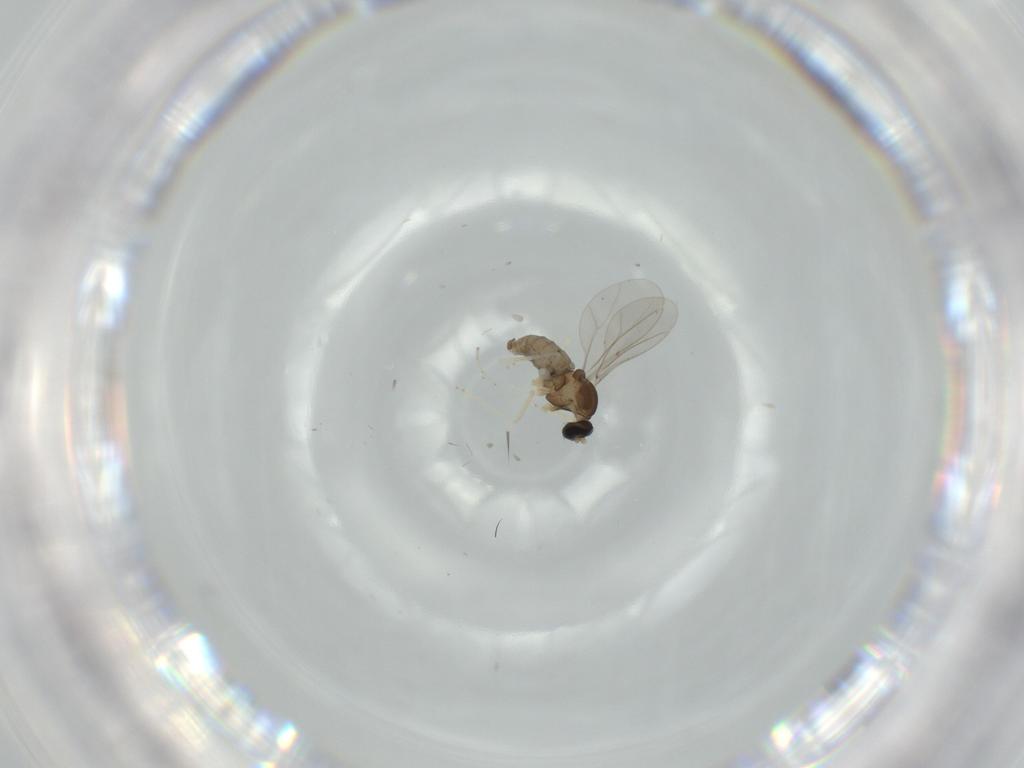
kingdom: Animalia
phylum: Arthropoda
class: Insecta
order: Diptera
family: Cecidomyiidae
